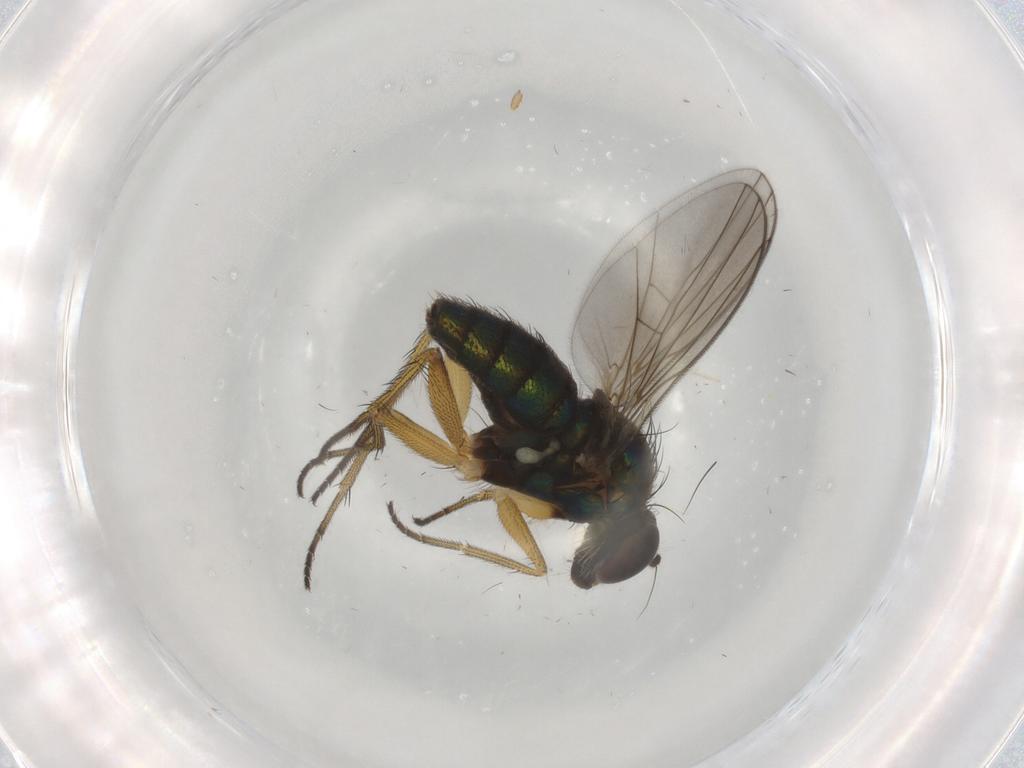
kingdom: Animalia
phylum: Arthropoda
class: Insecta
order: Diptera
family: Dolichopodidae
